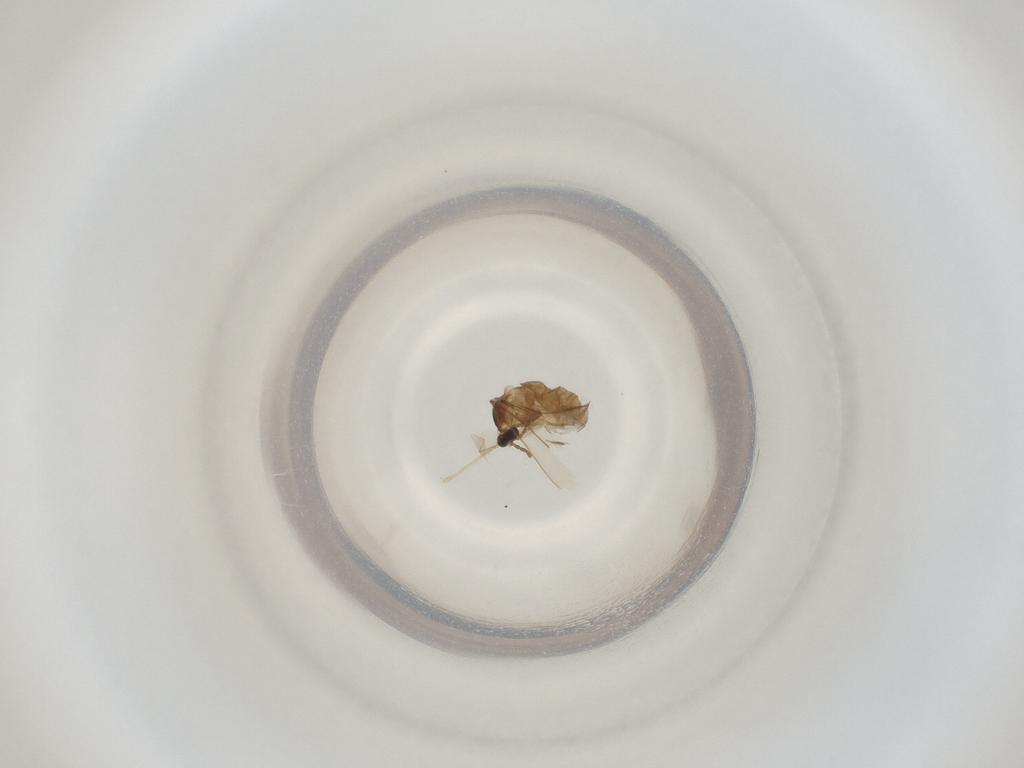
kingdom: Animalia
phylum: Arthropoda
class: Insecta
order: Diptera
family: Cecidomyiidae
